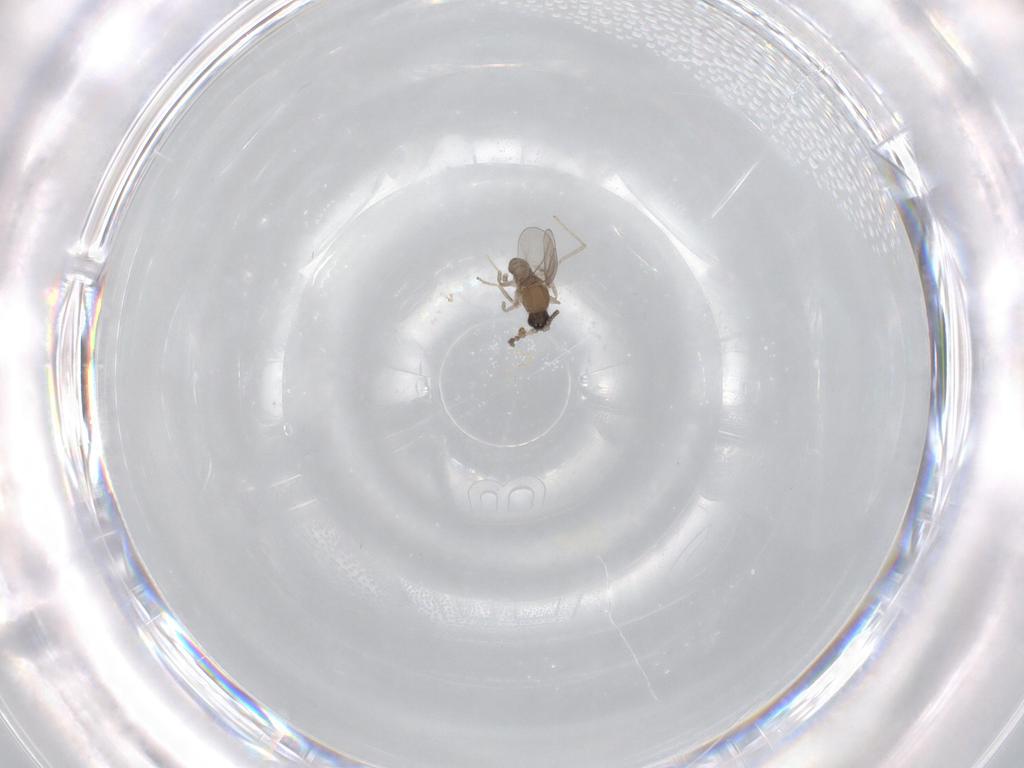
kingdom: Animalia
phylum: Arthropoda
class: Insecta
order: Diptera
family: Cecidomyiidae
